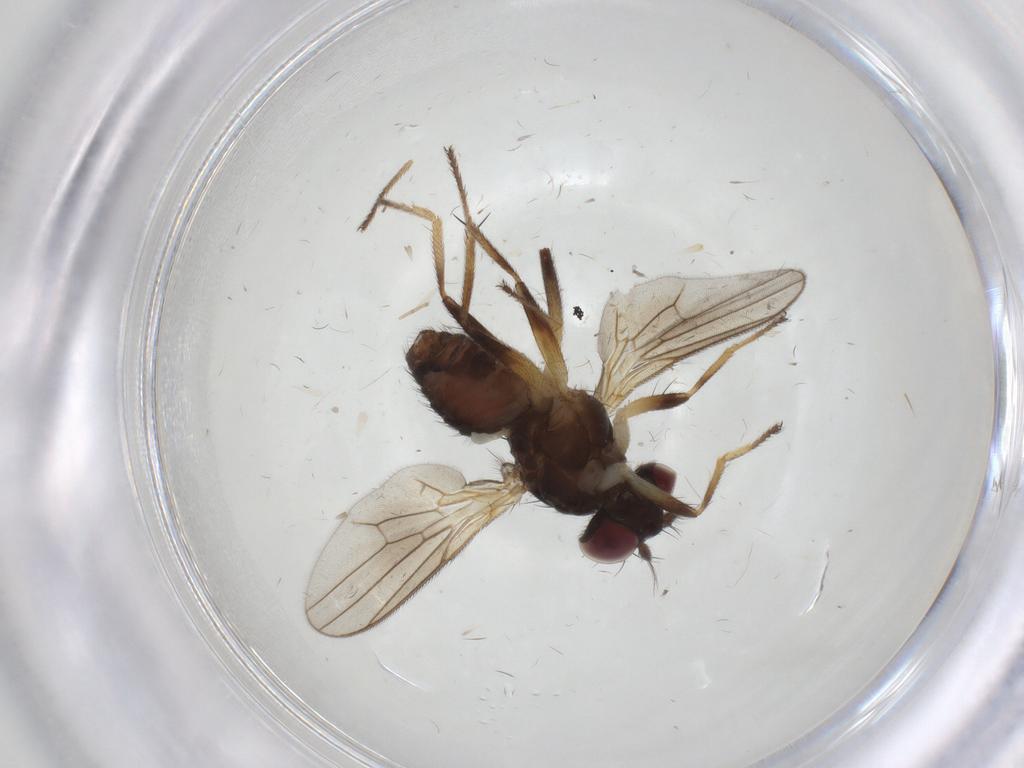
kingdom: Animalia
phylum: Arthropoda
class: Insecta
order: Diptera
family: Periscelididae
